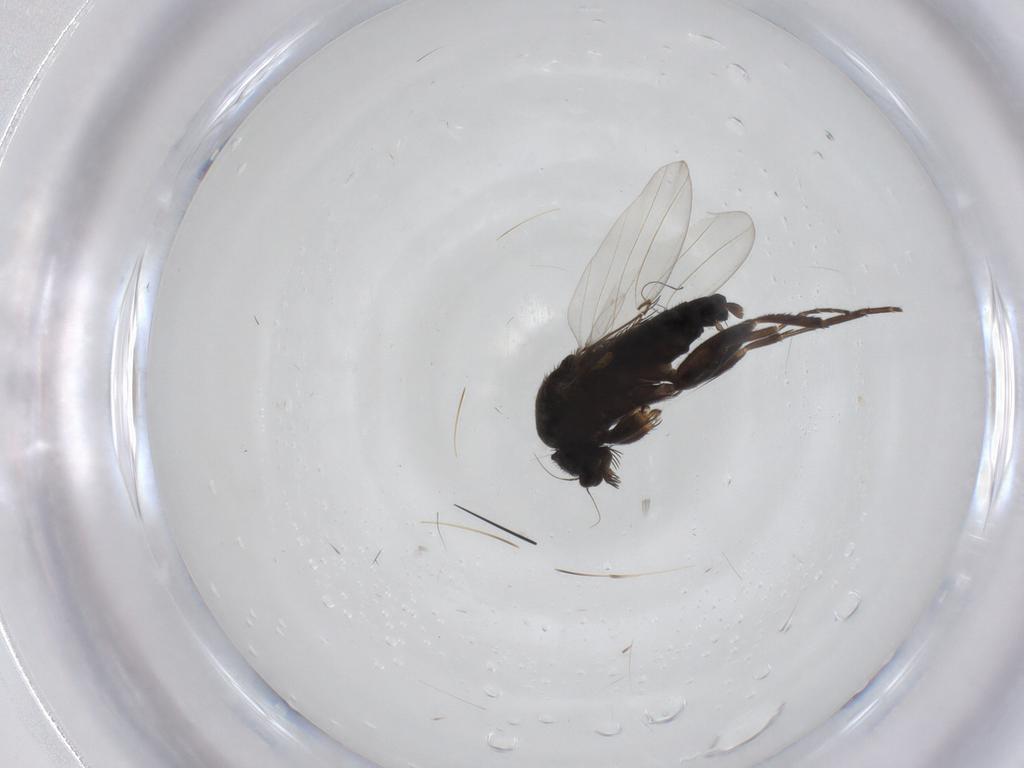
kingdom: Animalia
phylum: Arthropoda
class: Insecta
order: Diptera
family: Phoridae
